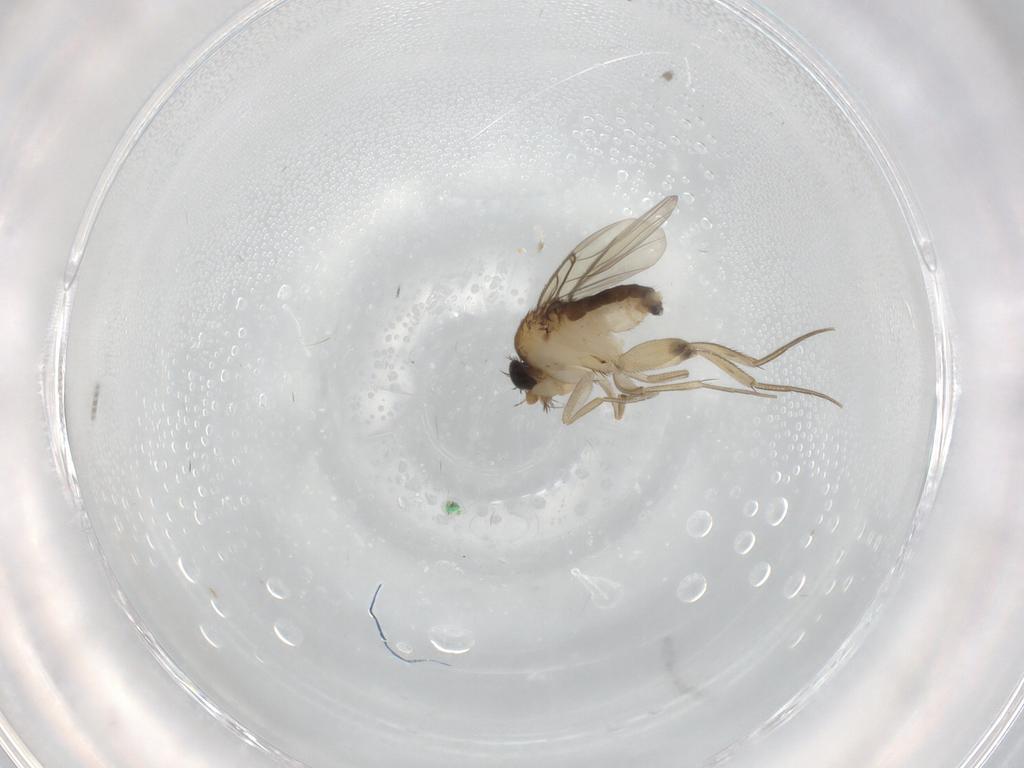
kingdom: Animalia
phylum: Arthropoda
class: Insecta
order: Diptera
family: Phoridae
